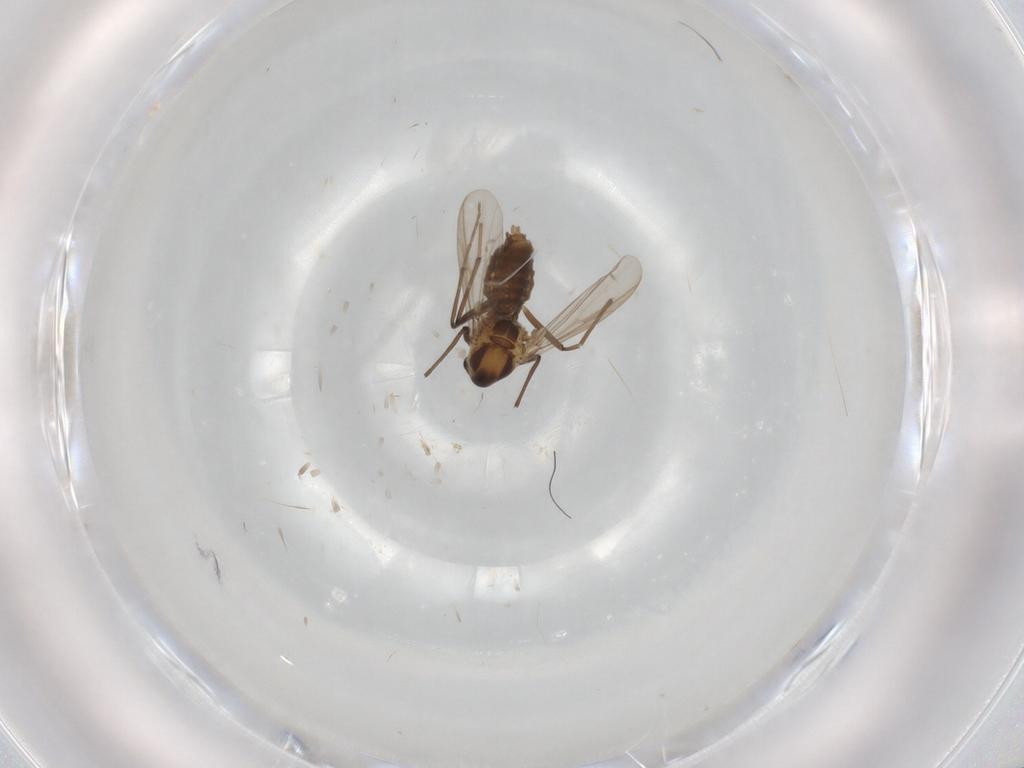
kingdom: Animalia
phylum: Arthropoda
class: Insecta
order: Diptera
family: Chironomidae
